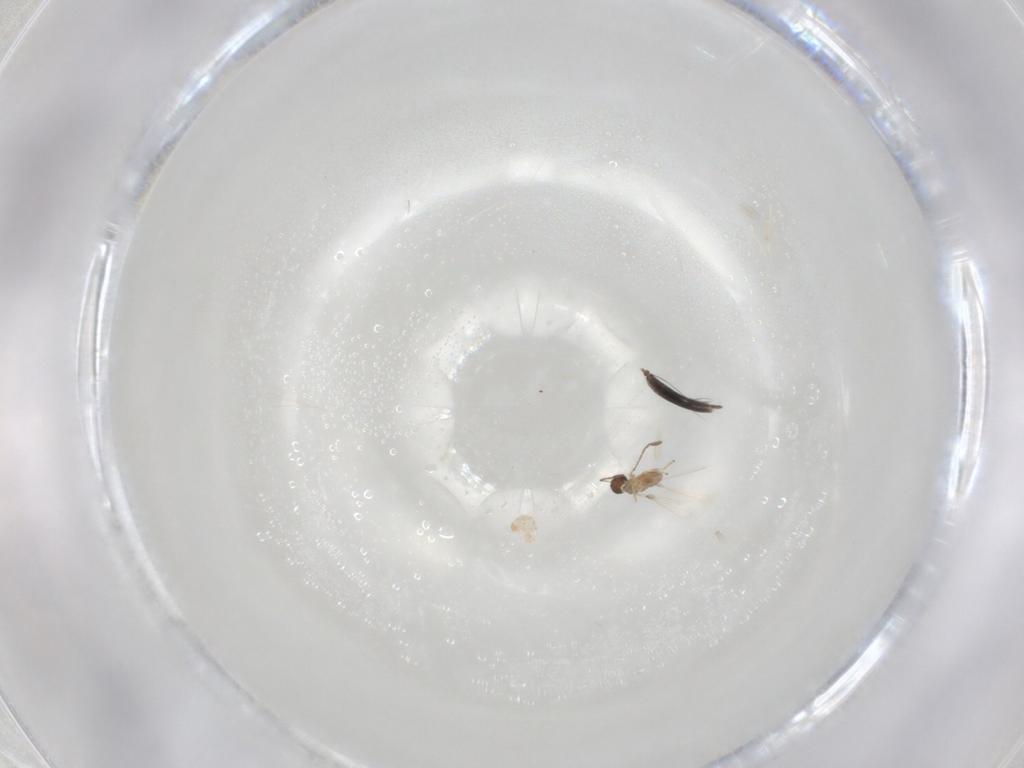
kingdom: Animalia
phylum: Arthropoda
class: Insecta
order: Hymenoptera
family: Mymaridae
